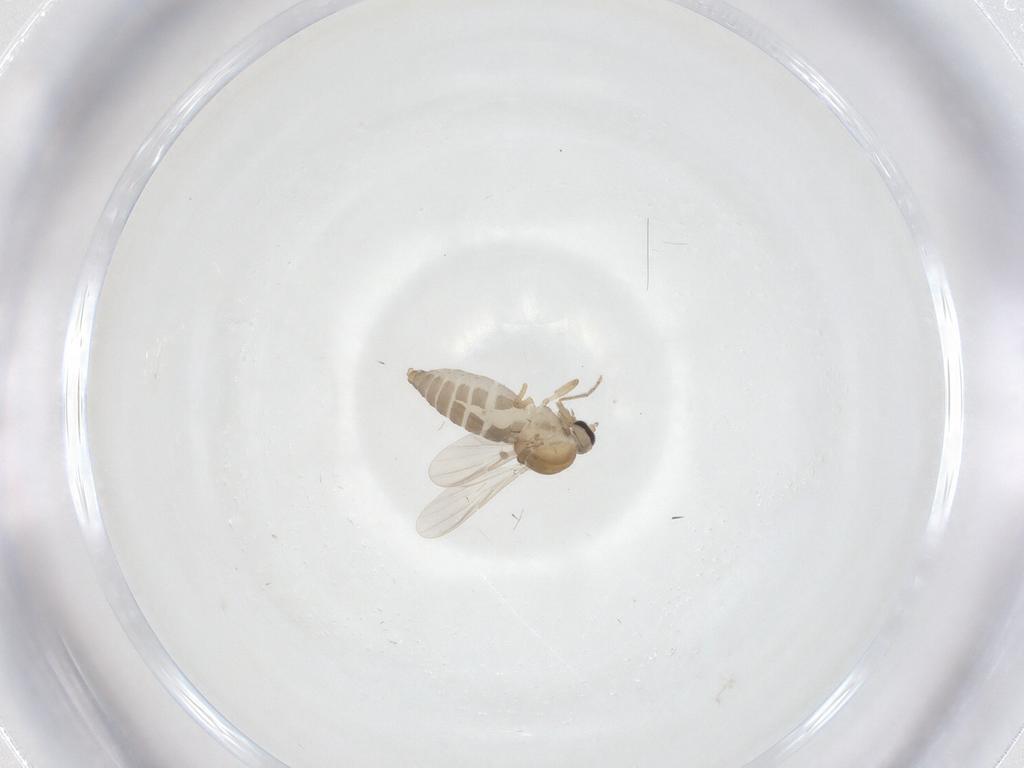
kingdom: Animalia
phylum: Arthropoda
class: Insecta
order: Diptera
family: Ceratopogonidae
